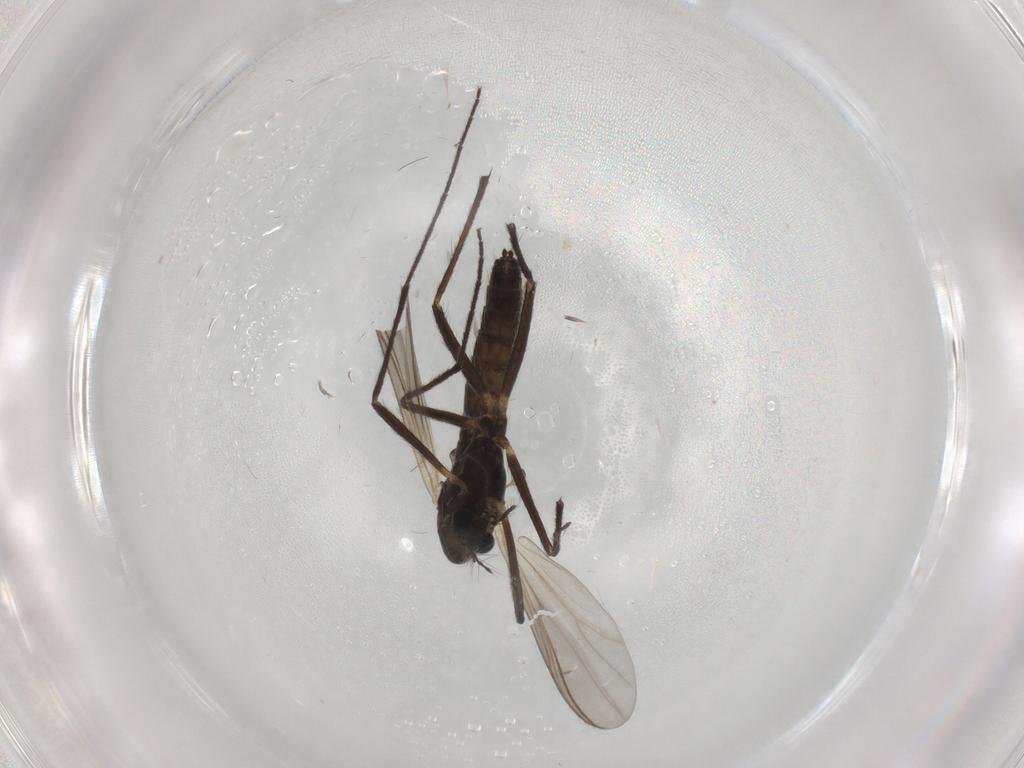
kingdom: Animalia
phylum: Arthropoda
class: Insecta
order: Diptera
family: Chironomidae
